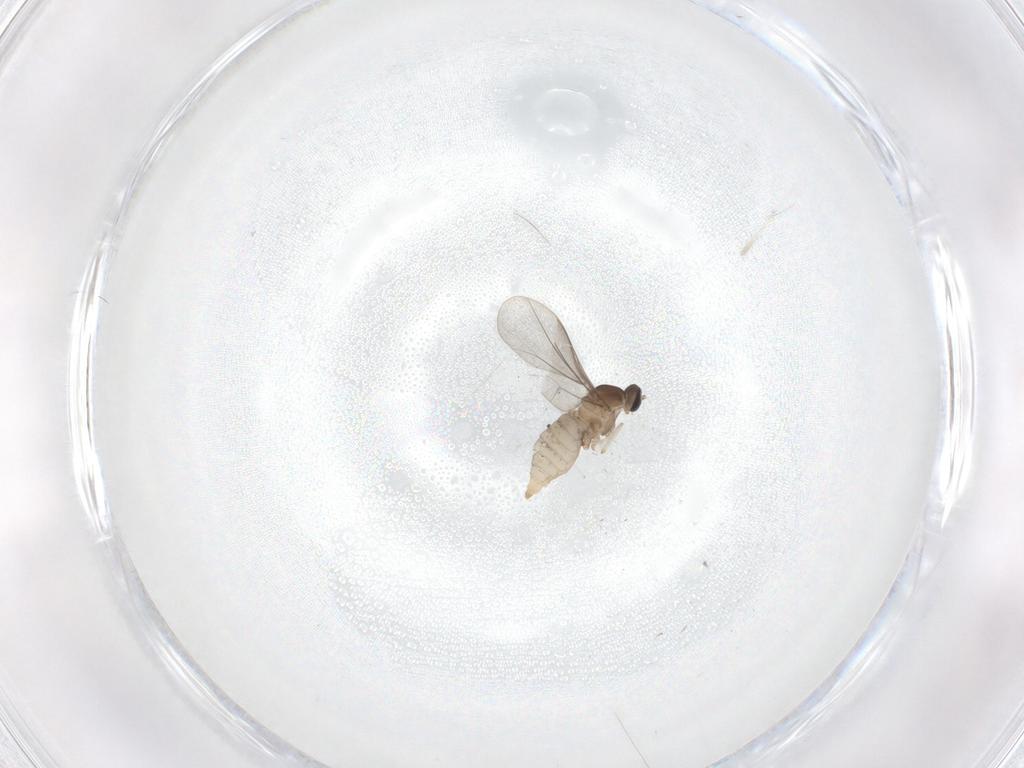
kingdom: Animalia
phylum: Arthropoda
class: Insecta
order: Diptera
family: Cecidomyiidae
